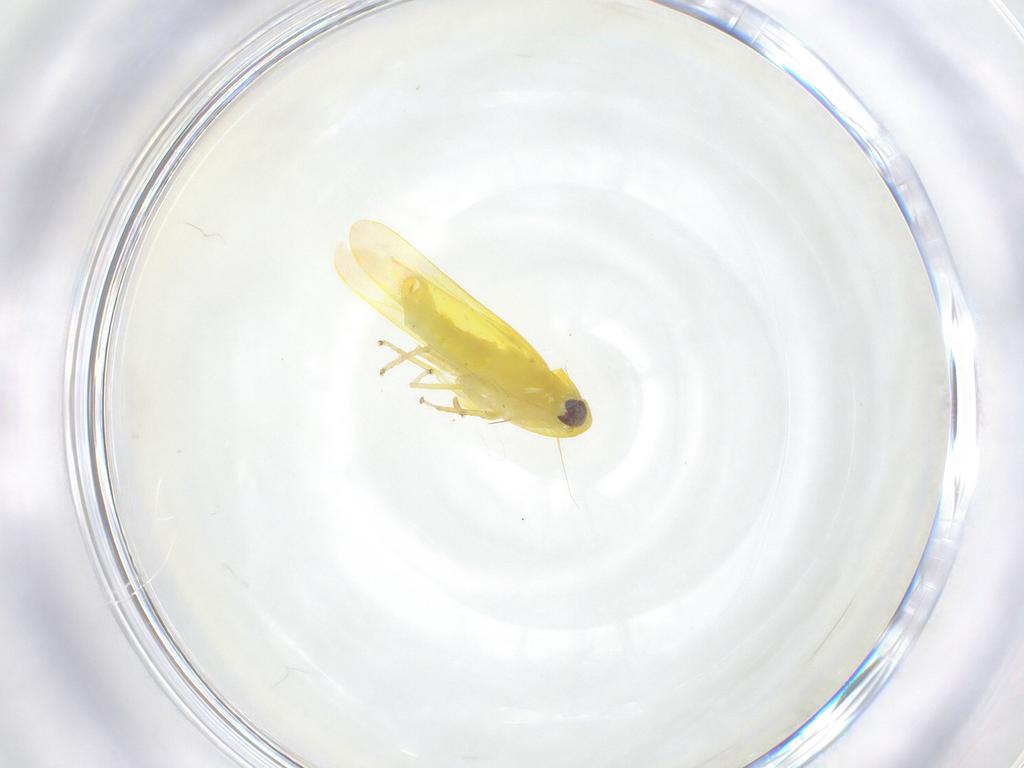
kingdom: Animalia
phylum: Arthropoda
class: Insecta
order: Hemiptera
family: Cicadellidae
